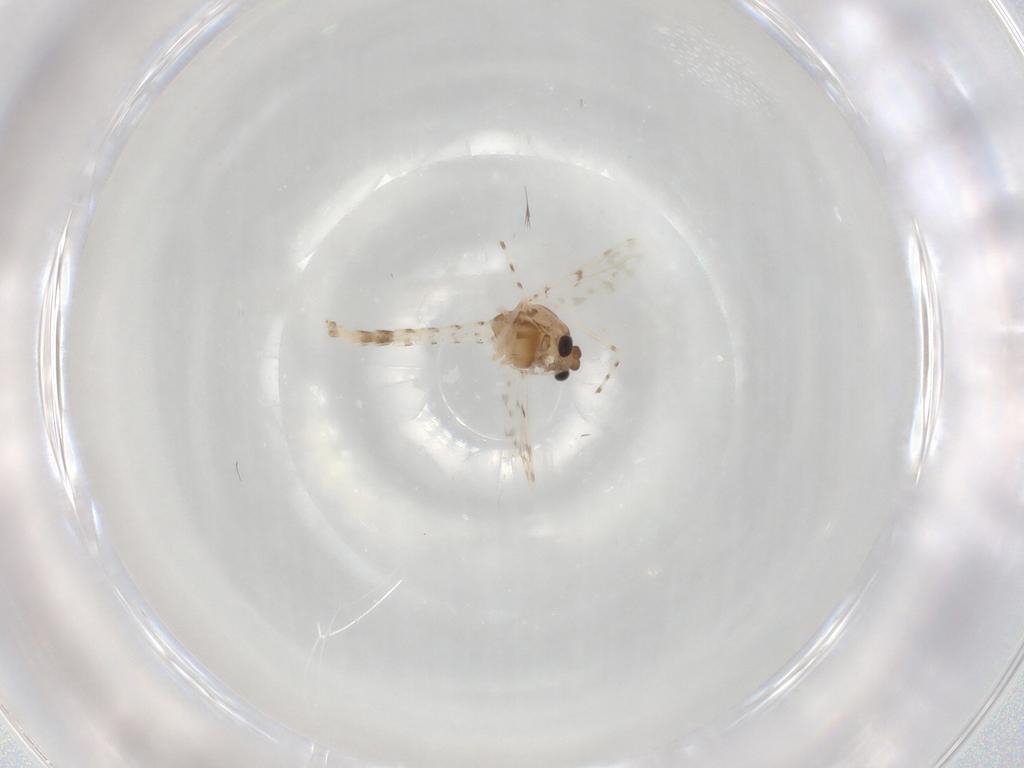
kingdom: Animalia
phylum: Arthropoda
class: Insecta
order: Diptera
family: Chironomidae
